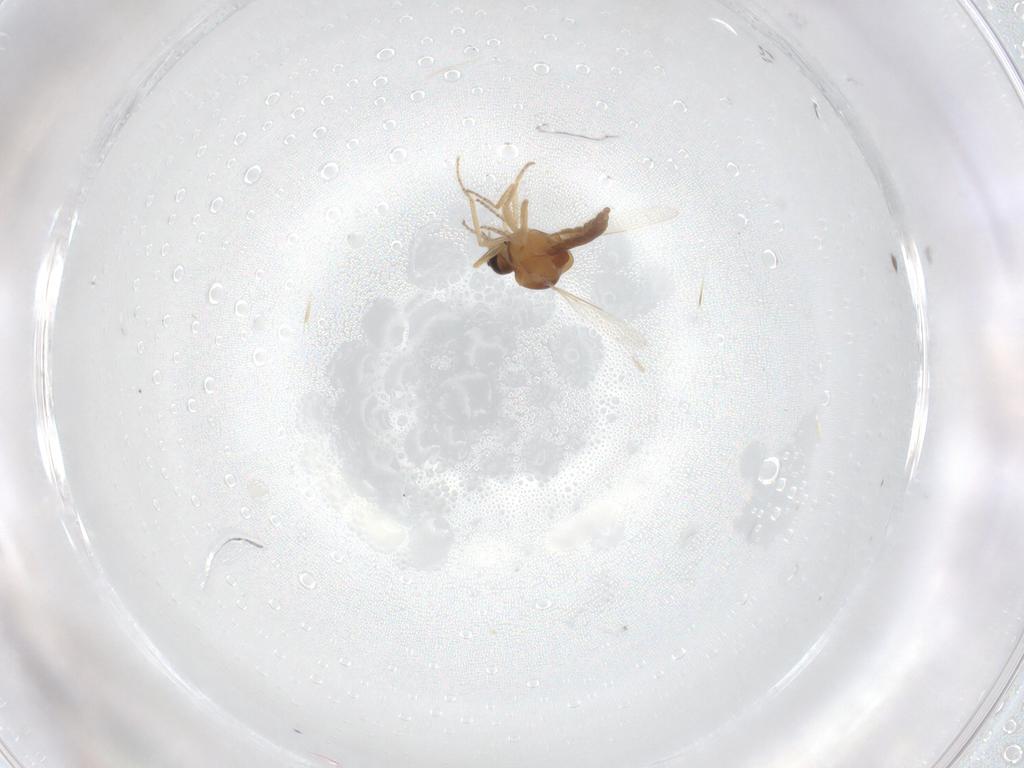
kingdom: Animalia
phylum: Arthropoda
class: Insecta
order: Diptera
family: Ceratopogonidae
